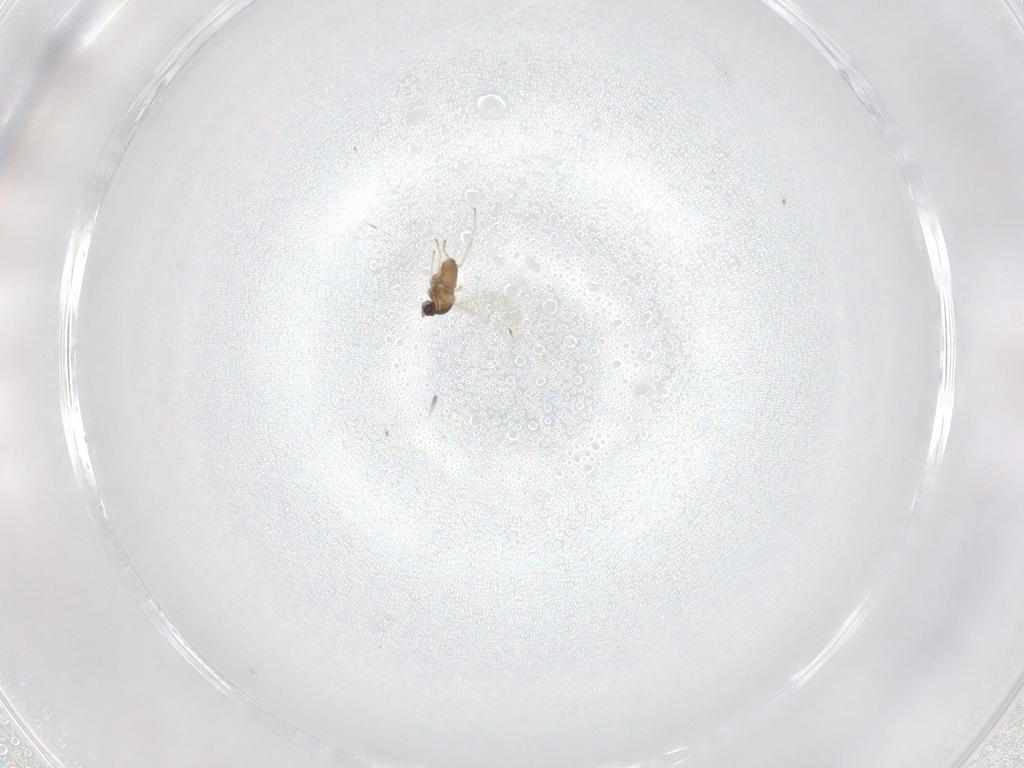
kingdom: Animalia
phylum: Arthropoda
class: Insecta
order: Diptera
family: Cecidomyiidae
